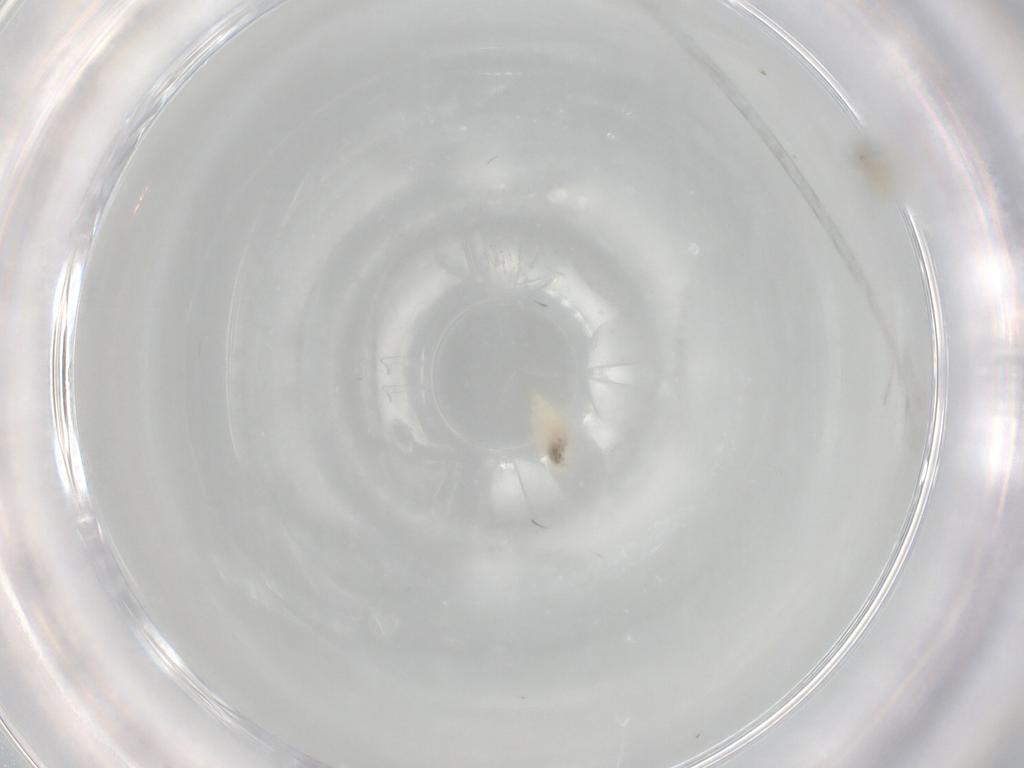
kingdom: Animalia
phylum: Arthropoda
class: Insecta
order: Diptera
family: Cecidomyiidae
